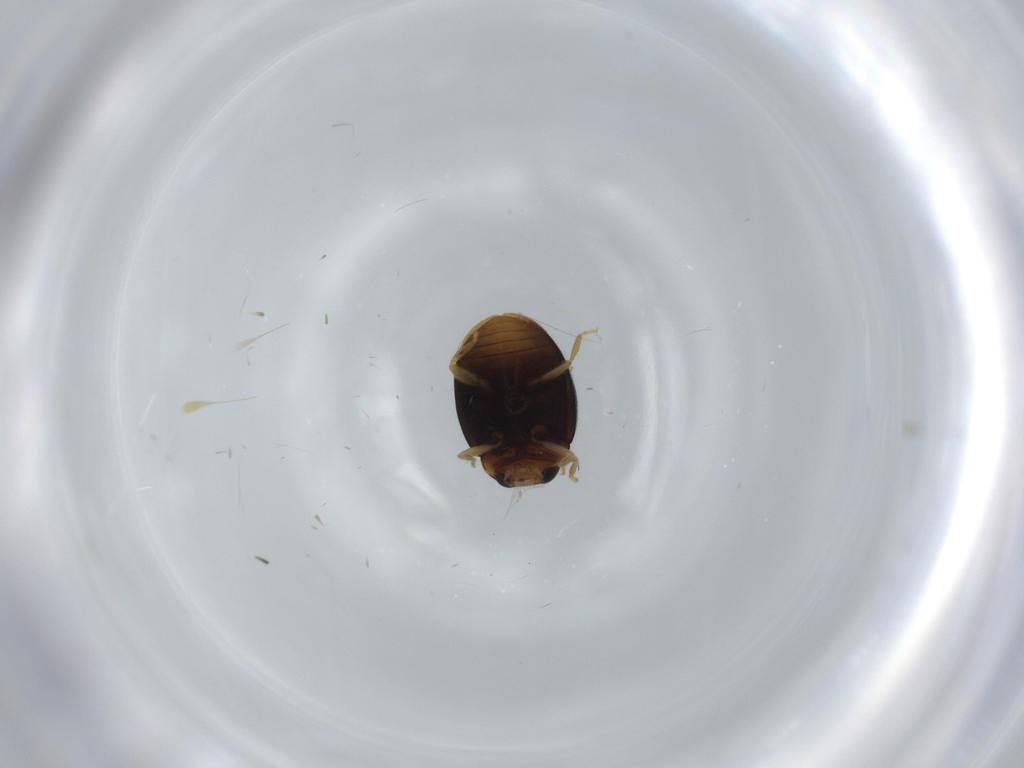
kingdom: Animalia
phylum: Arthropoda
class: Insecta
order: Coleoptera
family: Coccinellidae
